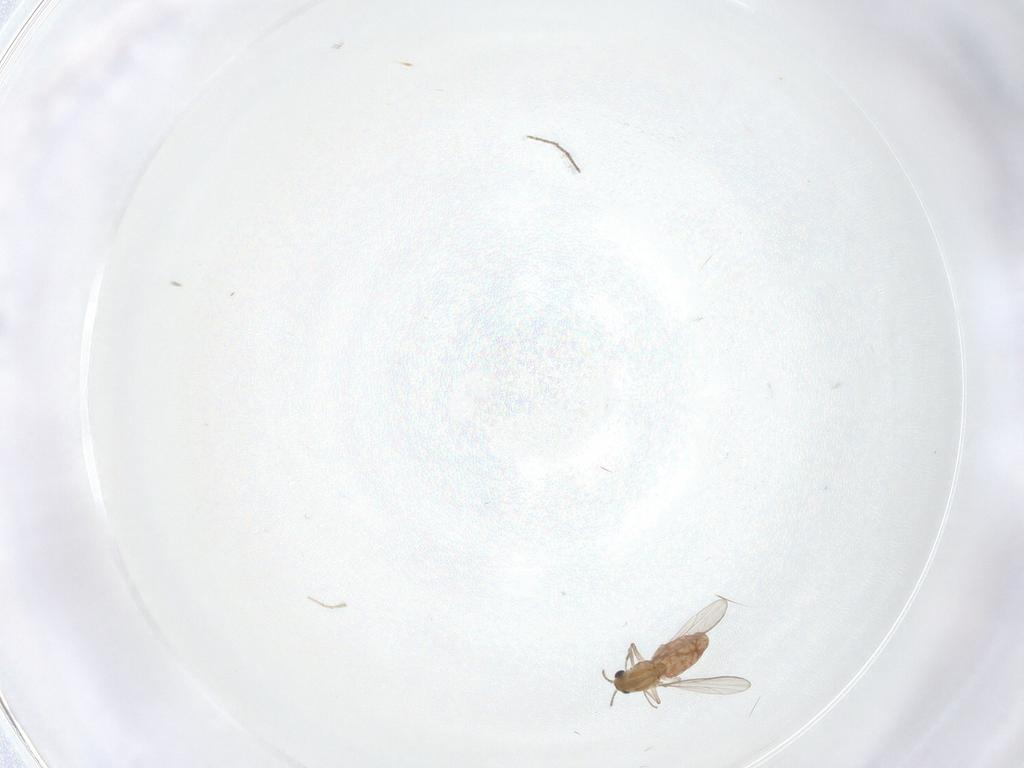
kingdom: Animalia
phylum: Arthropoda
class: Insecta
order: Diptera
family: Chironomidae
